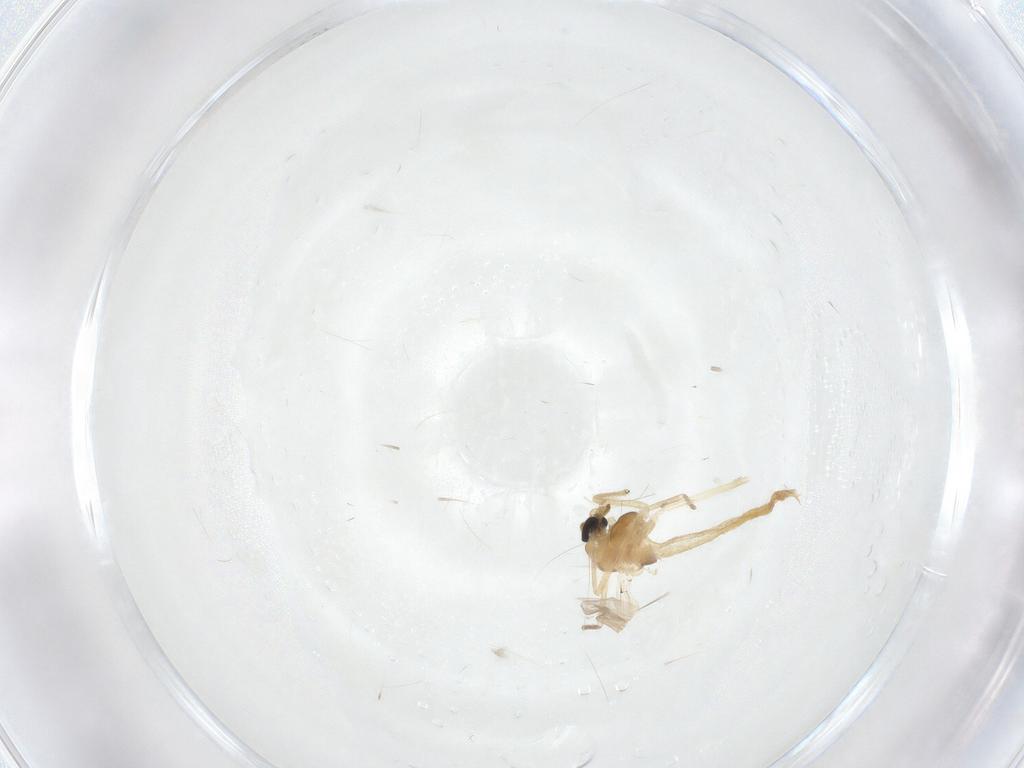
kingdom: Animalia
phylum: Arthropoda
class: Insecta
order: Diptera
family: Chironomidae
